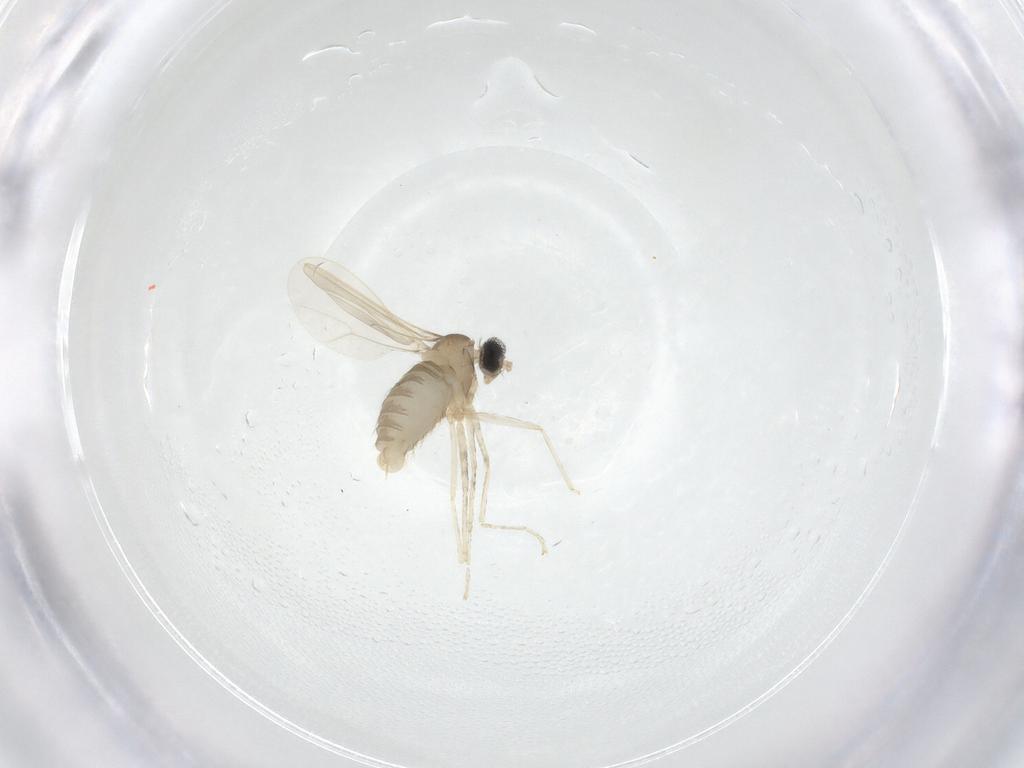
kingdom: Animalia
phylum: Arthropoda
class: Insecta
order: Diptera
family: Cecidomyiidae
